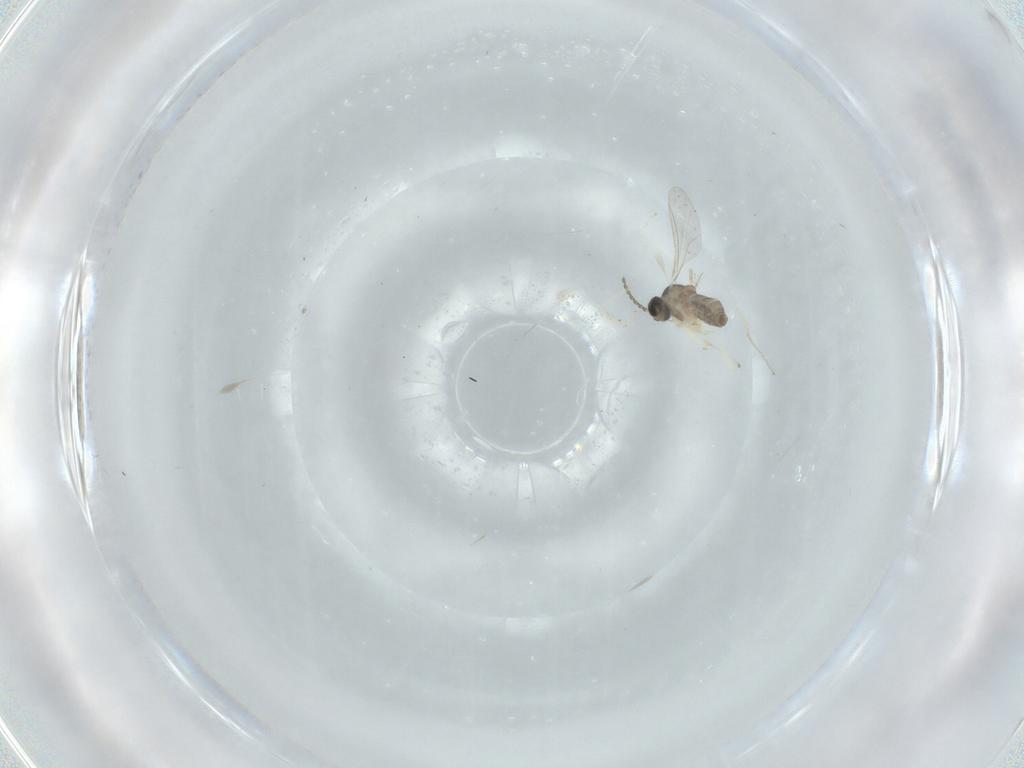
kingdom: Animalia
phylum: Arthropoda
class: Insecta
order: Diptera
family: Cecidomyiidae
